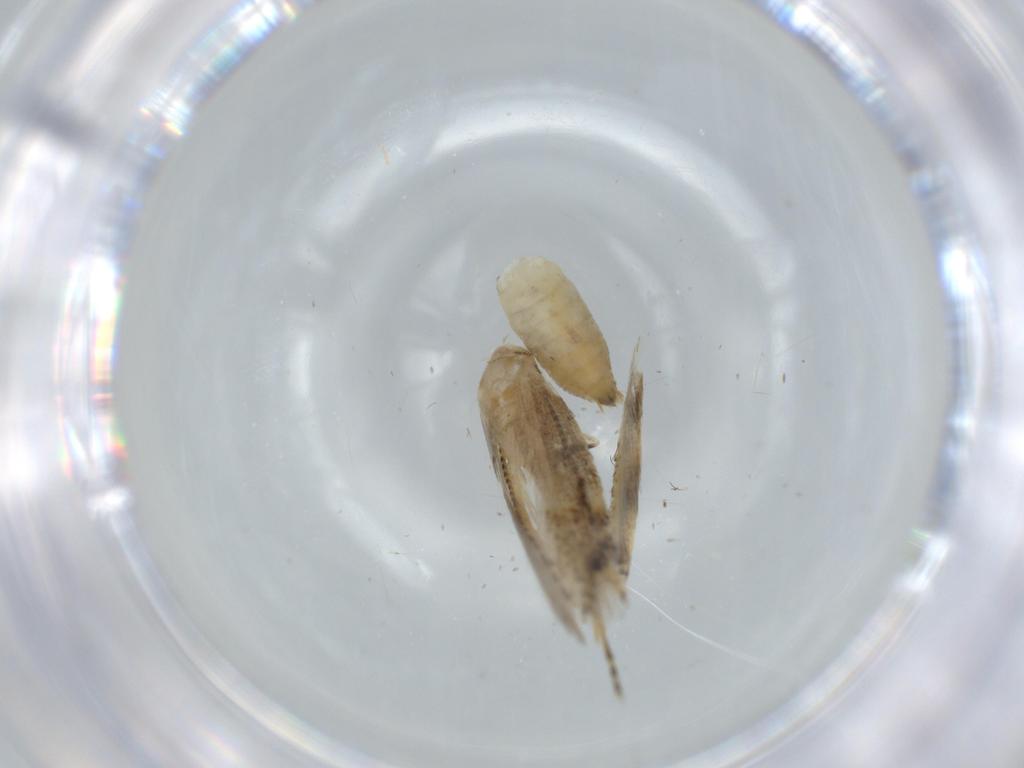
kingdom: Animalia
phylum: Arthropoda
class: Insecta
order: Lepidoptera
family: Bucculatricidae
